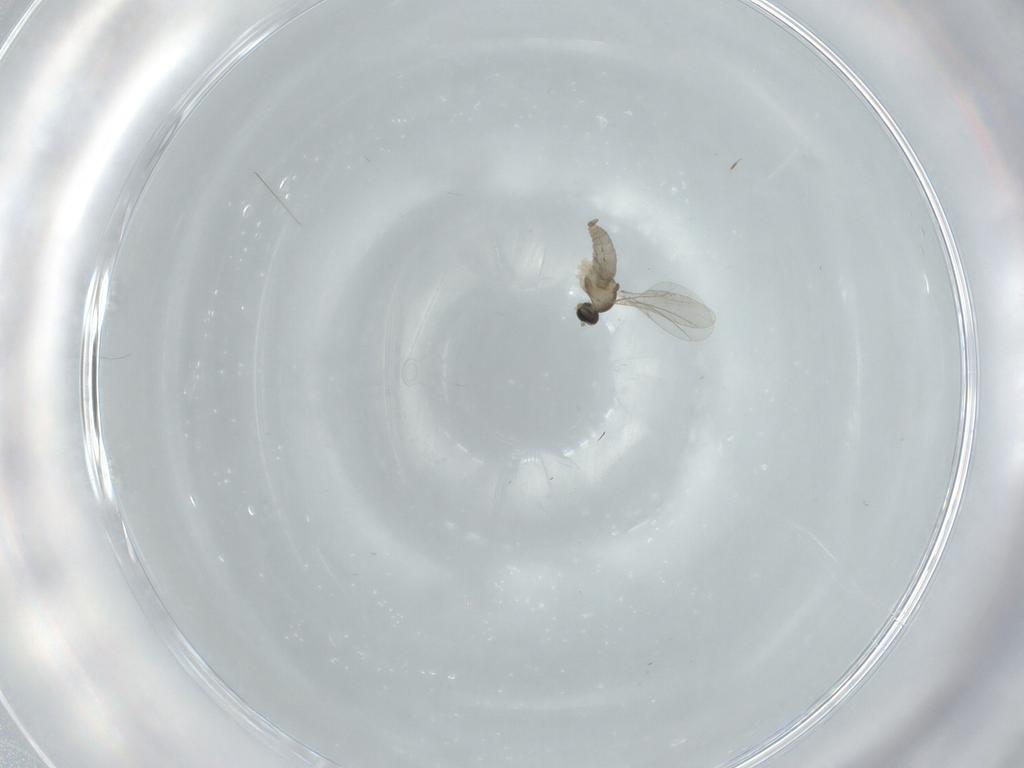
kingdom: Animalia
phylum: Arthropoda
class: Insecta
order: Diptera
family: Cecidomyiidae
